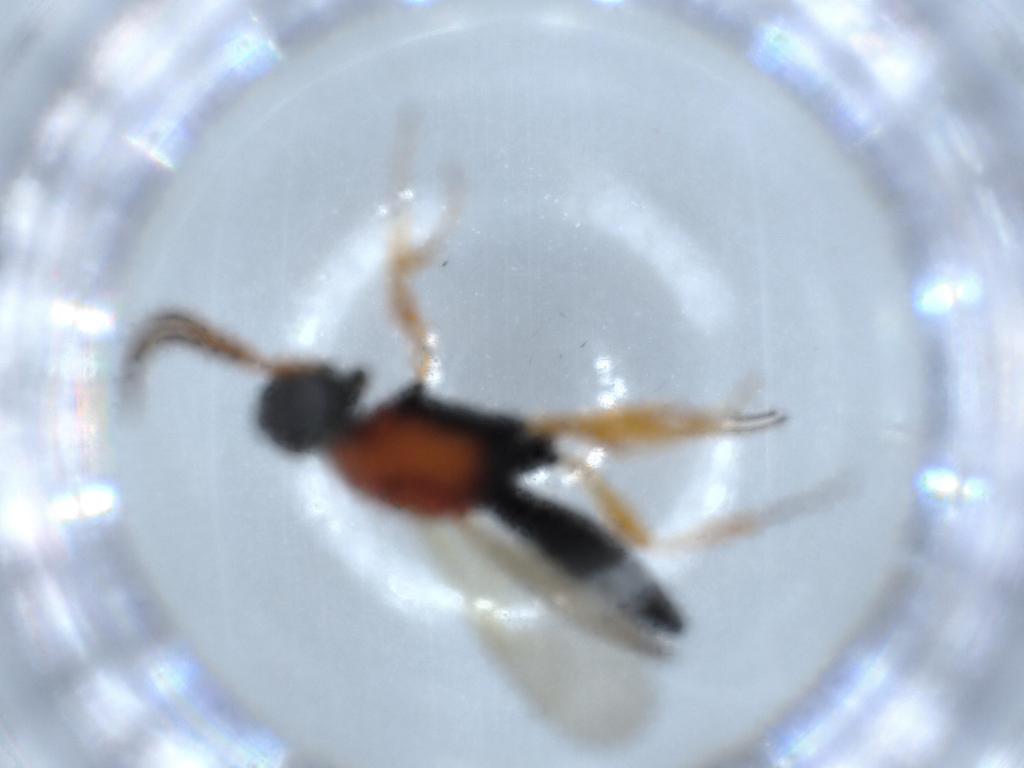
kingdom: Animalia
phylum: Arthropoda
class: Insecta
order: Hymenoptera
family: Scelionidae
